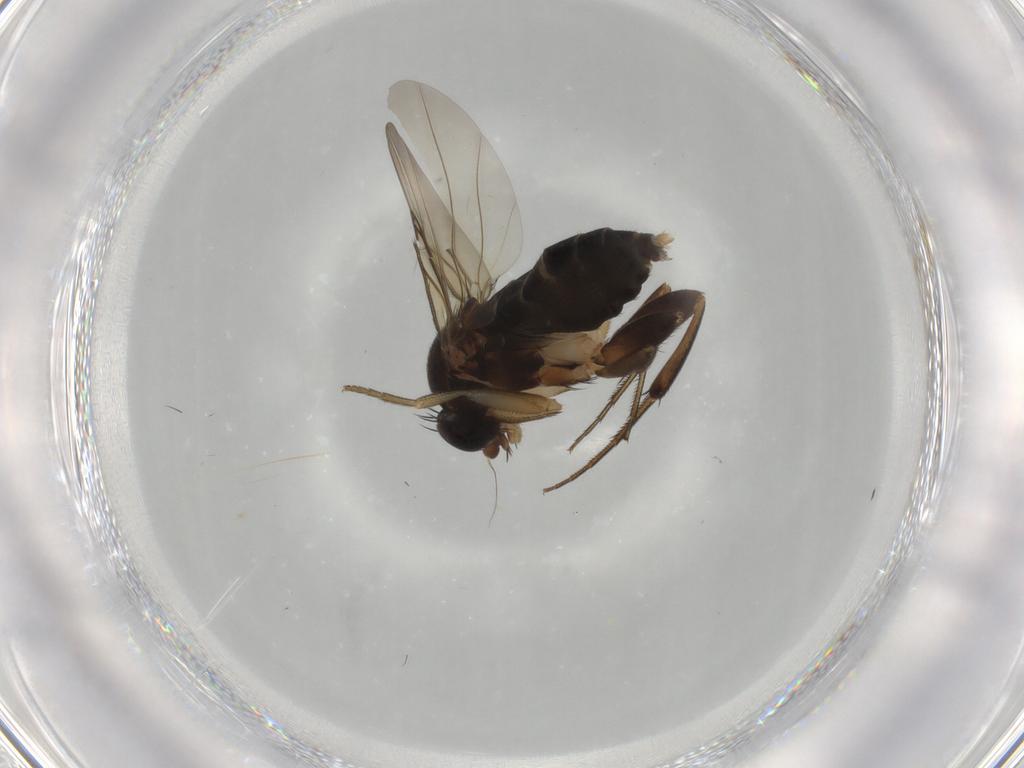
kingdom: Animalia
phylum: Arthropoda
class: Insecta
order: Diptera
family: Phoridae
